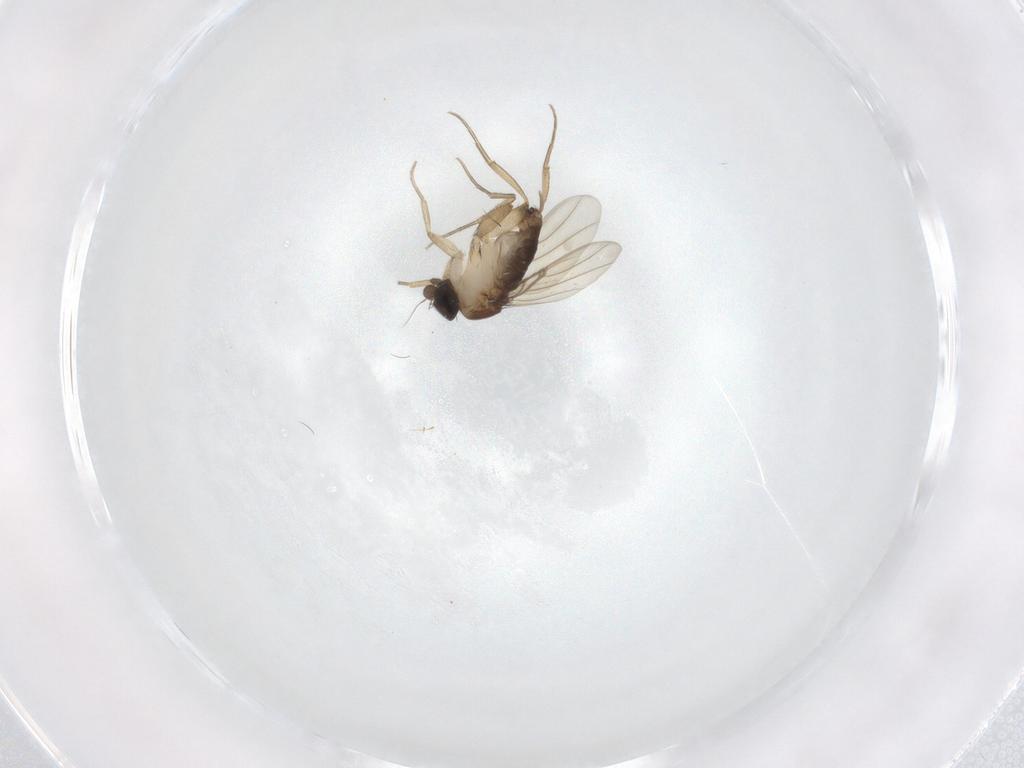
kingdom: Animalia
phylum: Arthropoda
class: Insecta
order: Diptera
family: Phoridae
